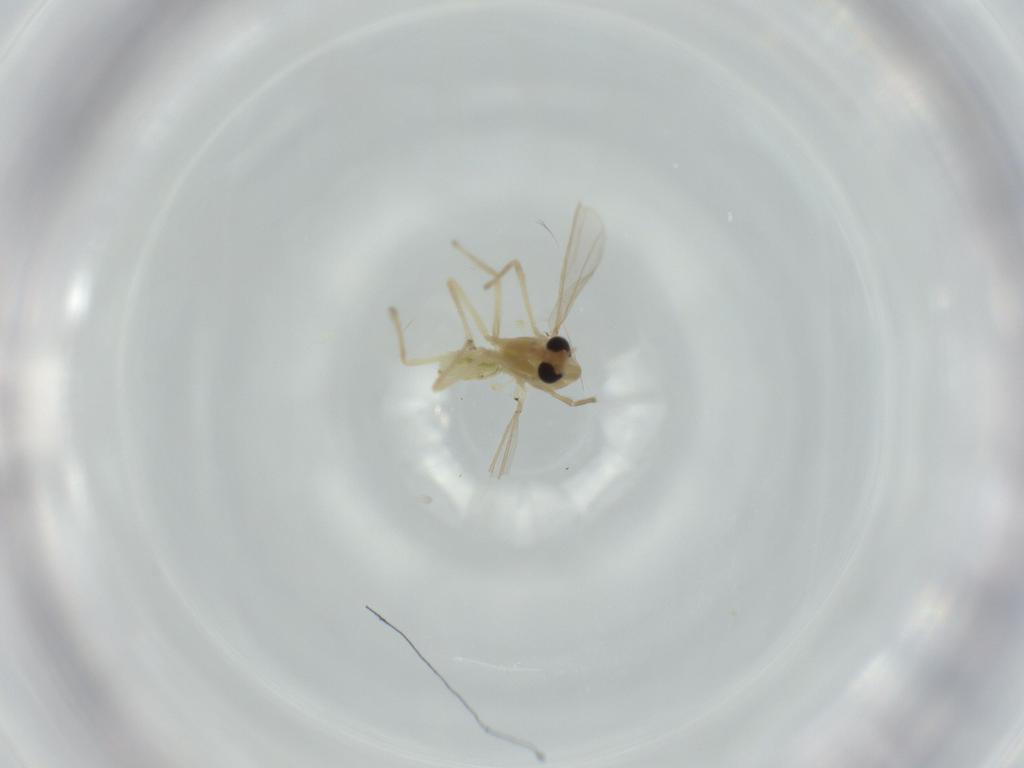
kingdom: Animalia
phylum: Arthropoda
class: Insecta
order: Diptera
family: Chironomidae
